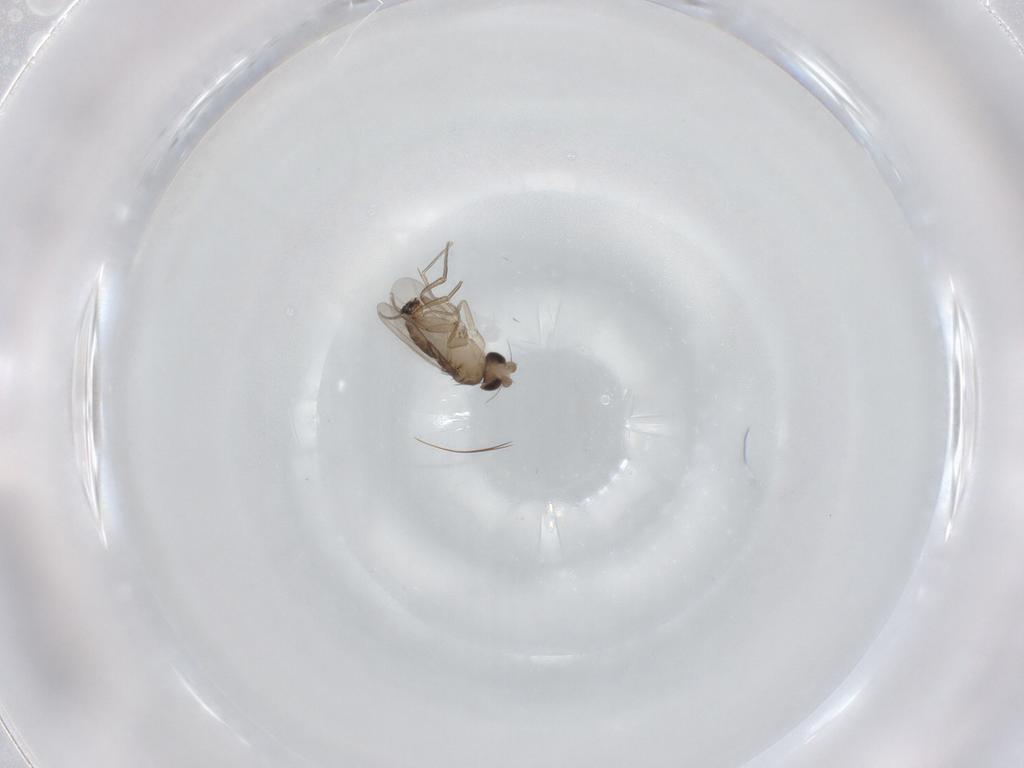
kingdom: Animalia
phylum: Arthropoda
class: Insecta
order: Diptera
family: Phoridae
